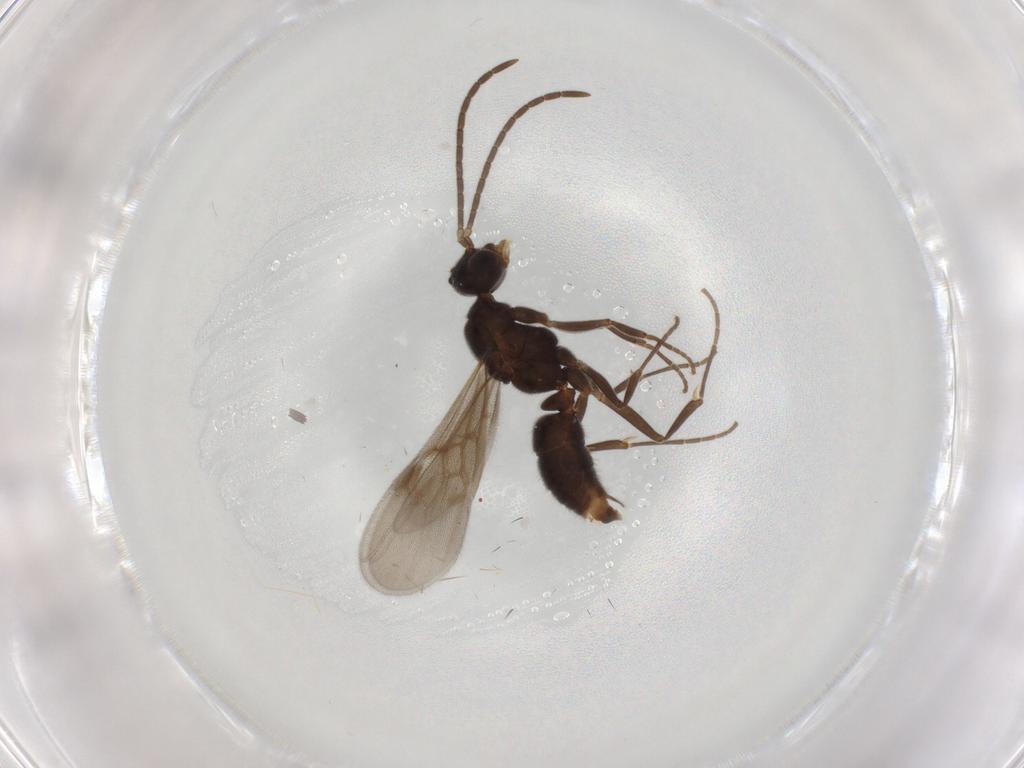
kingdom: Animalia
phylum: Arthropoda
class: Insecta
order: Hymenoptera
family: Formicidae
